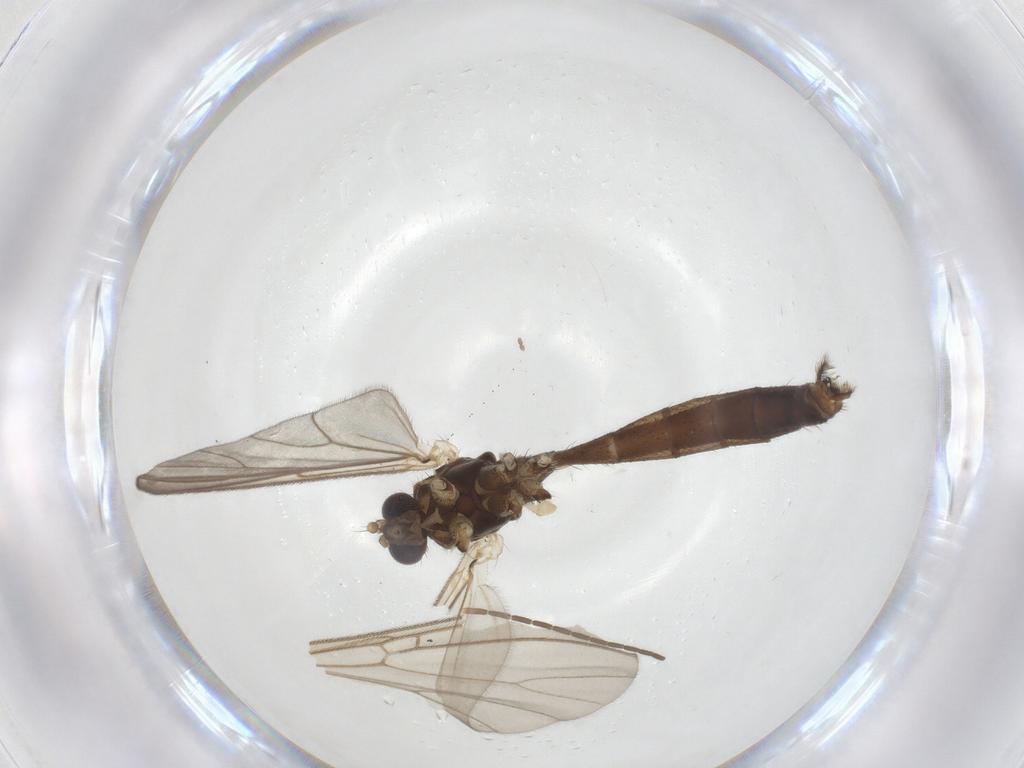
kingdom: Animalia
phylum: Arthropoda
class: Insecta
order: Diptera
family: Mycetophilidae
